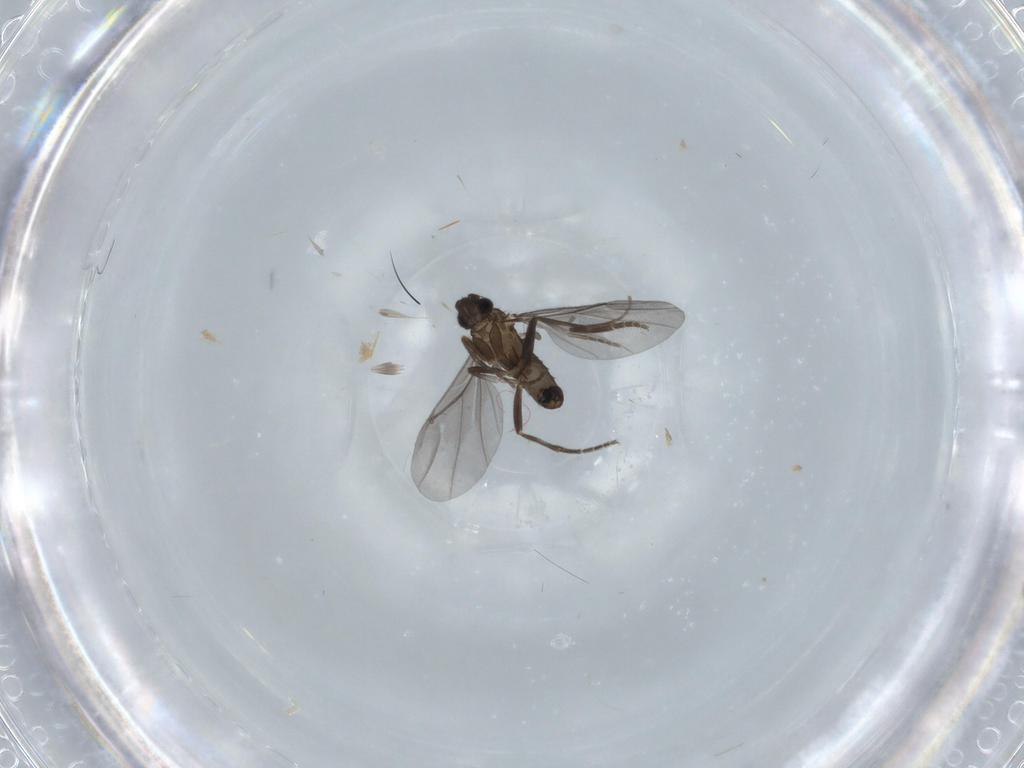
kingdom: Animalia
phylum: Arthropoda
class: Insecta
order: Diptera
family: Phoridae
